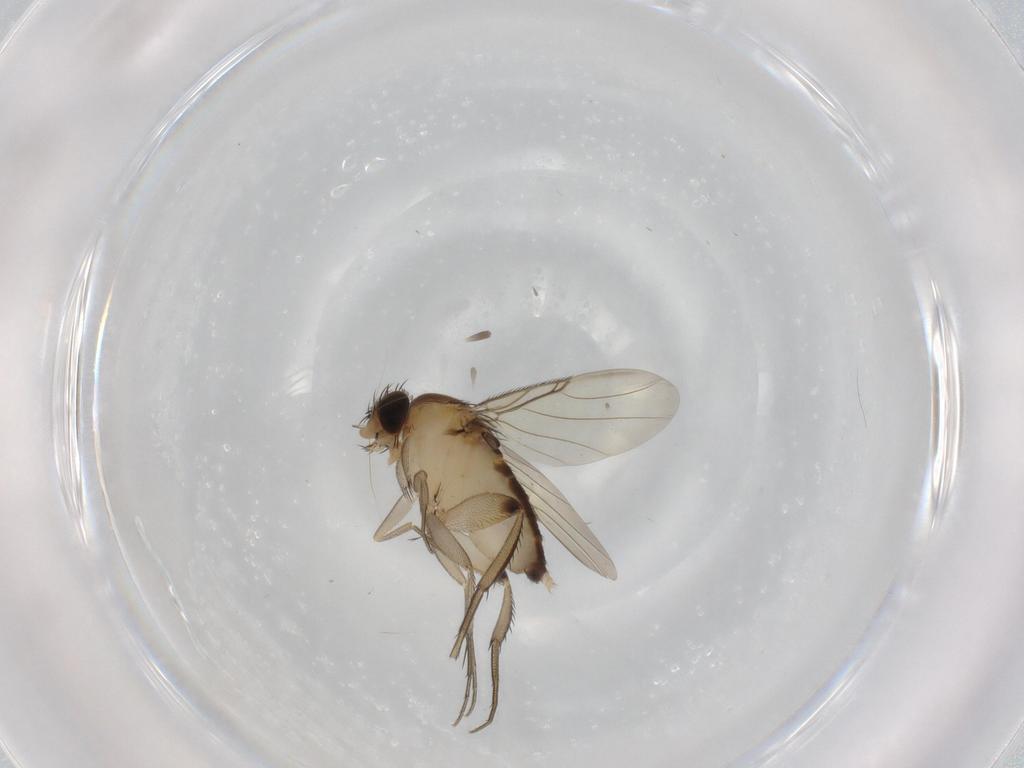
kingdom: Animalia
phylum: Arthropoda
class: Insecta
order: Diptera
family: Phoridae
